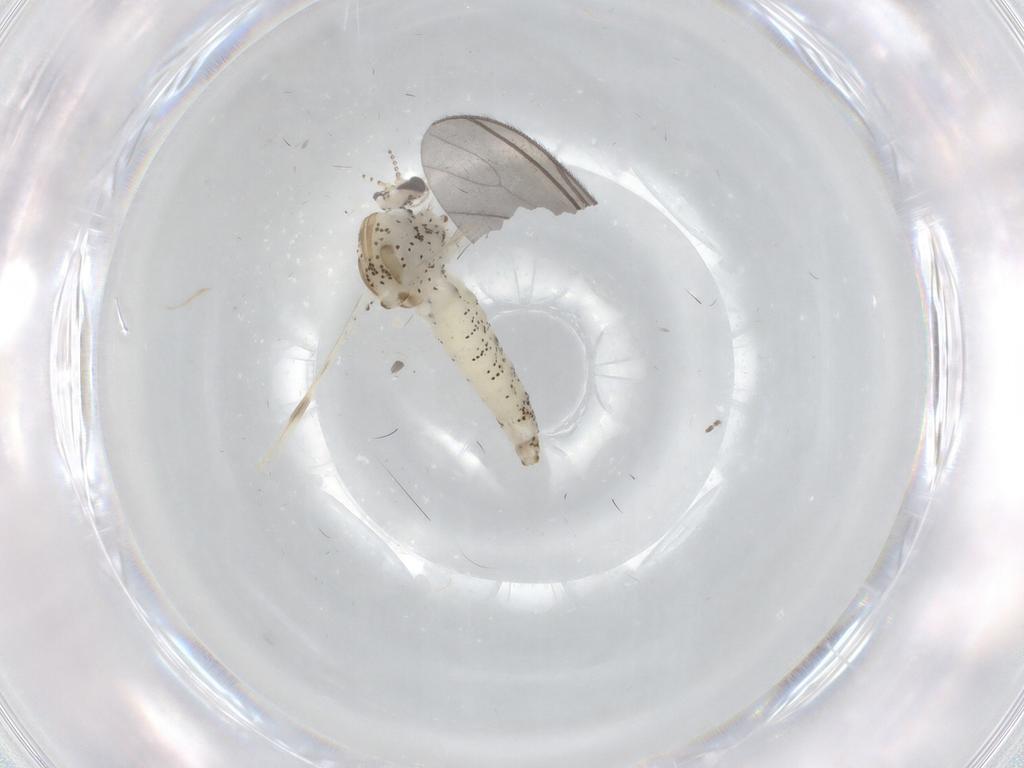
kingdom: Animalia
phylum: Arthropoda
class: Insecta
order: Diptera
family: Chaoboridae
